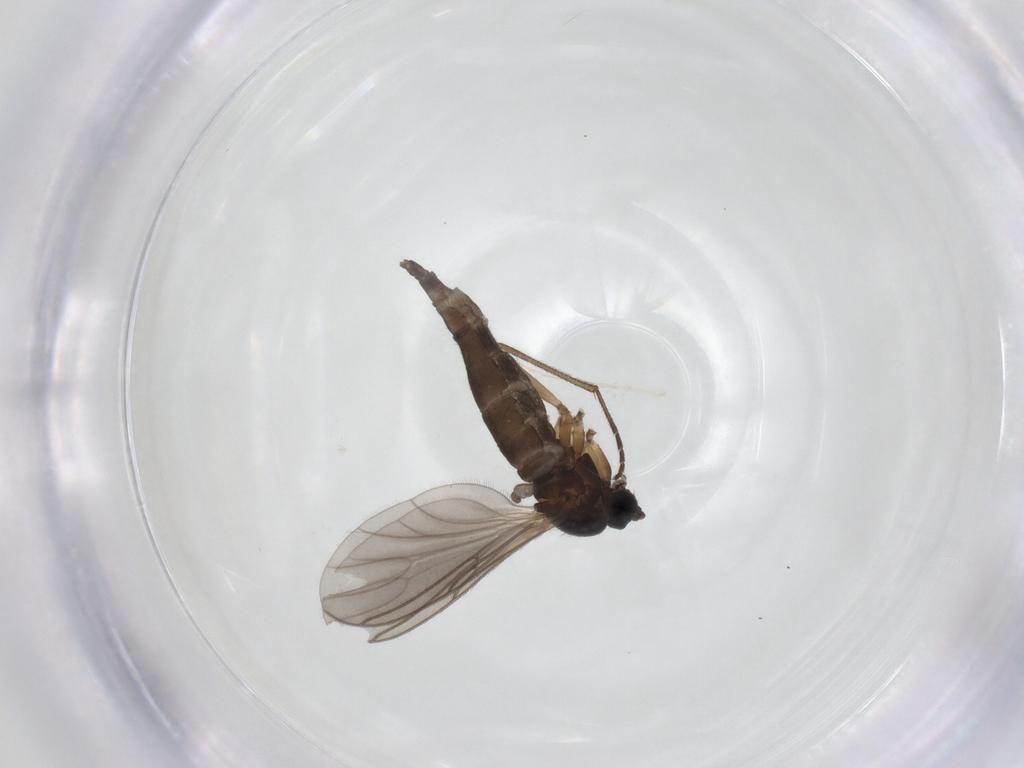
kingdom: Animalia
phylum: Arthropoda
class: Insecta
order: Diptera
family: Sciaridae
